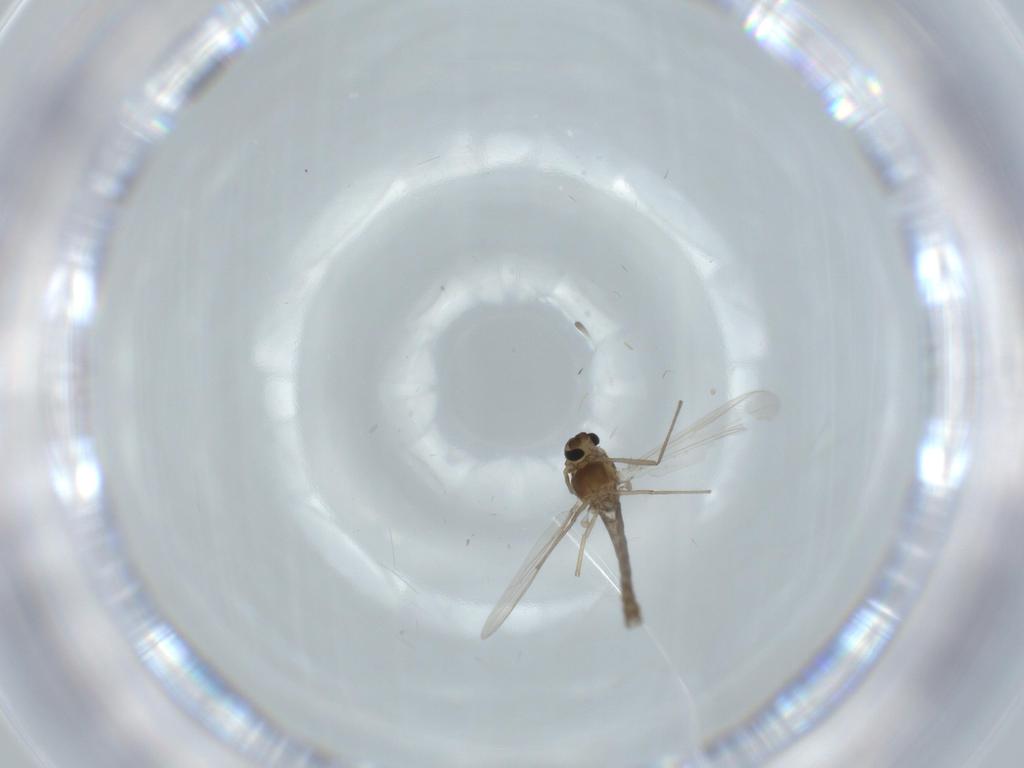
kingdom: Animalia
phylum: Arthropoda
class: Insecta
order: Diptera
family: Chironomidae
